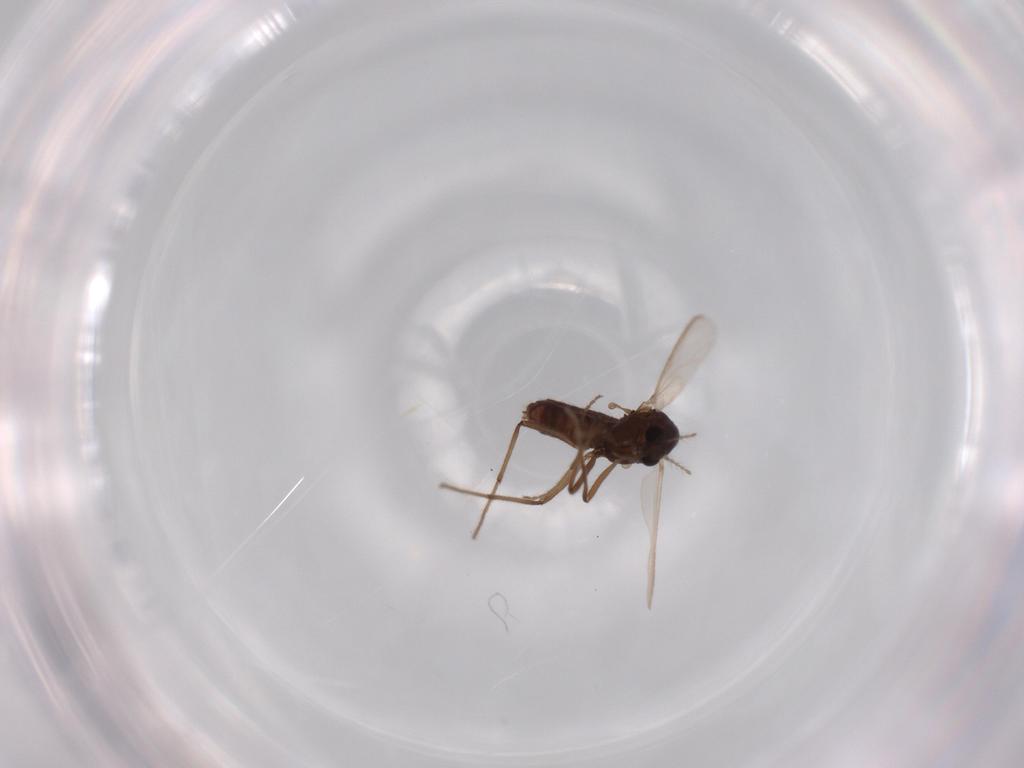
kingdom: Animalia
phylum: Arthropoda
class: Insecta
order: Diptera
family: Chironomidae
